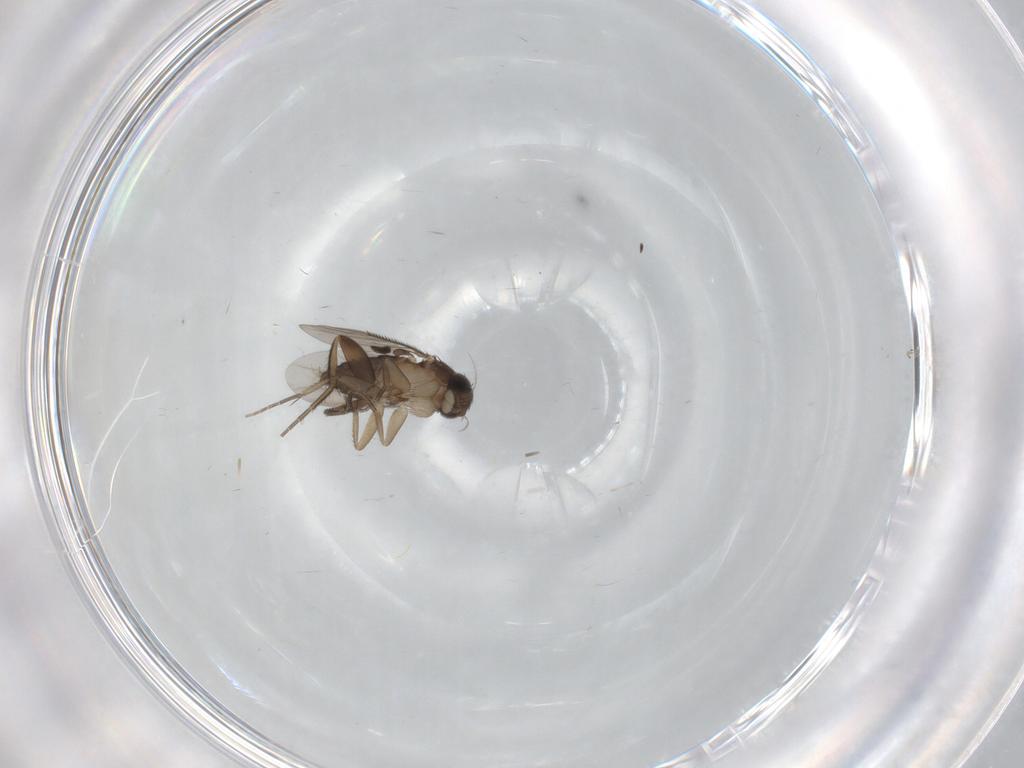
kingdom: Animalia
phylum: Arthropoda
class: Insecta
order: Diptera
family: Phoridae
